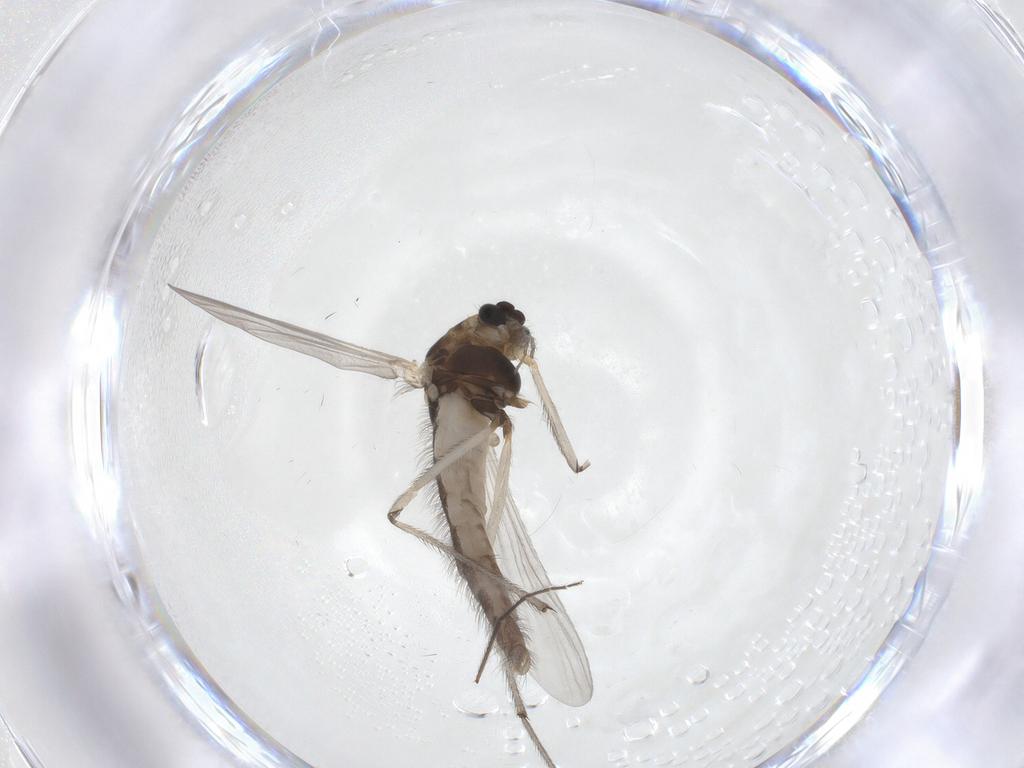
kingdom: Animalia
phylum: Arthropoda
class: Insecta
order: Diptera
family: Chironomidae
